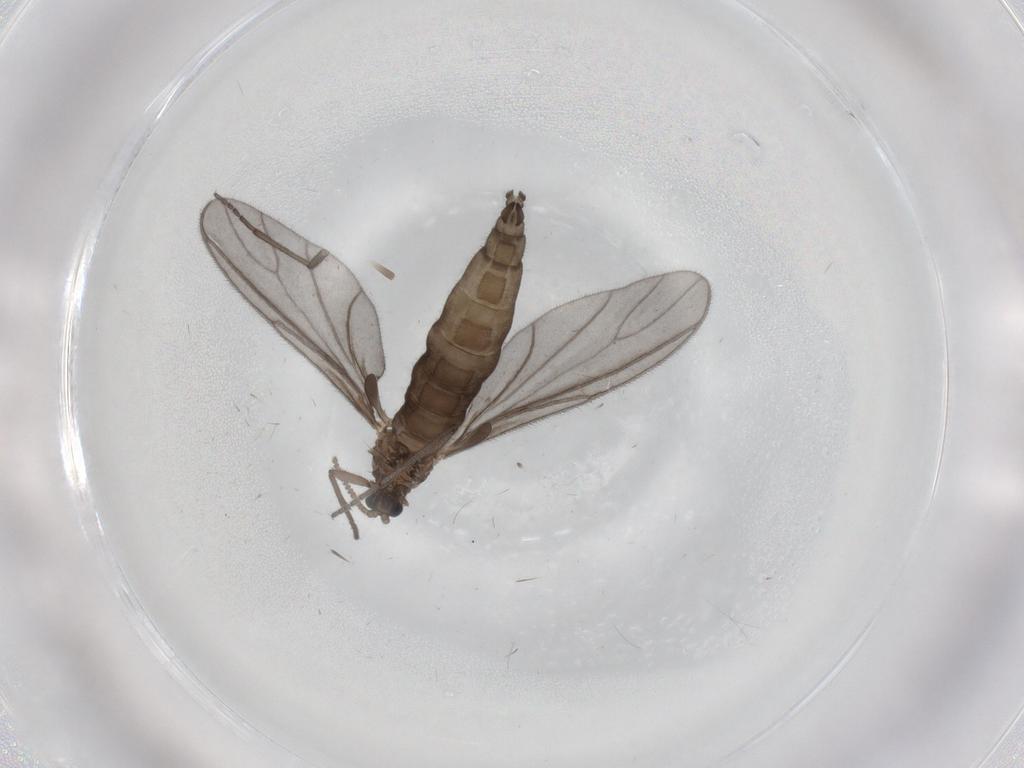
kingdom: Animalia
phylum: Arthropoda
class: Insecta
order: Diptera
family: Sciaridae
